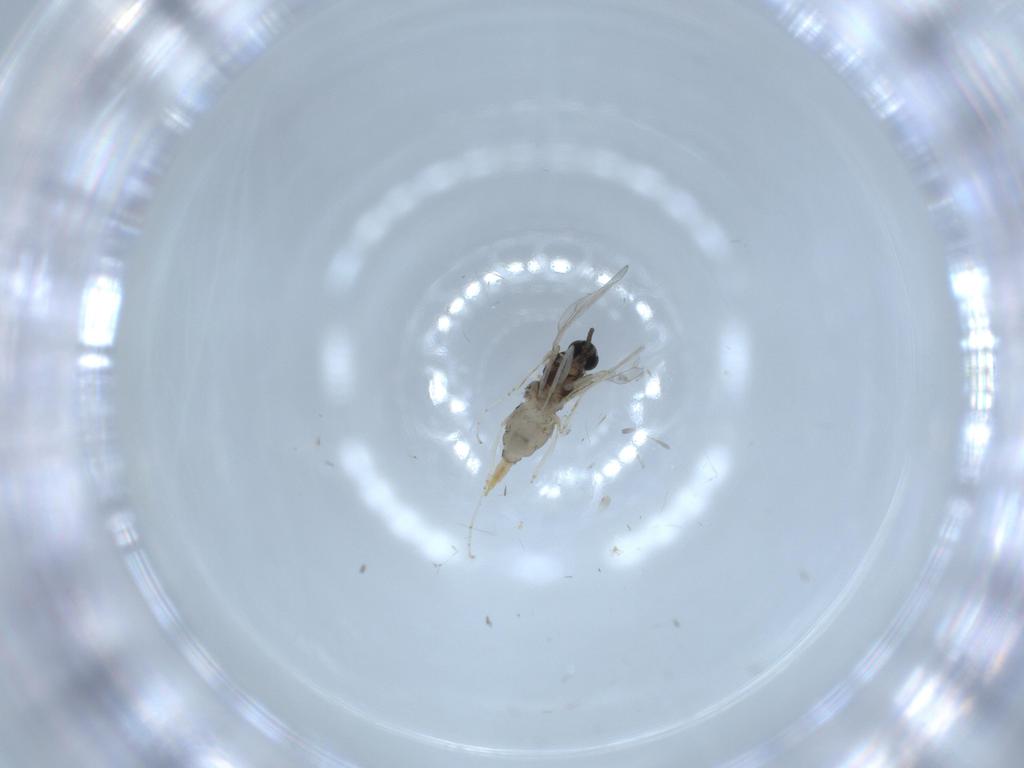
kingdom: Animalia
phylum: Arthropoda
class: Insecta
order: Diptera
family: Cecidomyiidae
